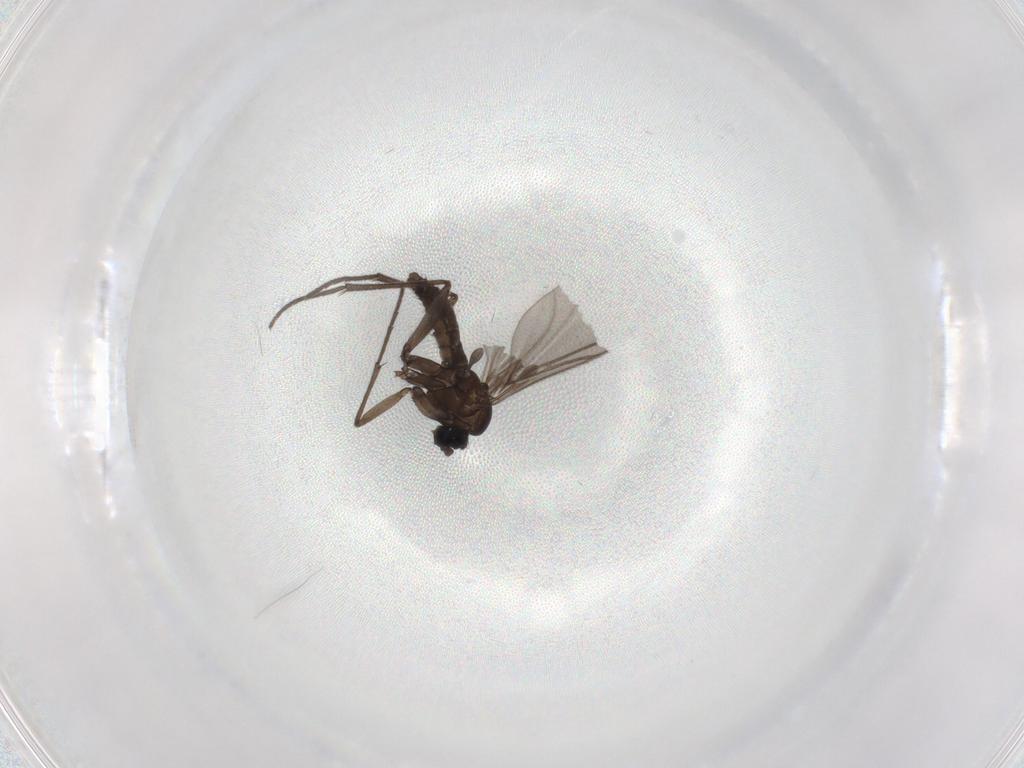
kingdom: Animalia
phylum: Arthropoda
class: Insecta
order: Diptera
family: Sciaridae
